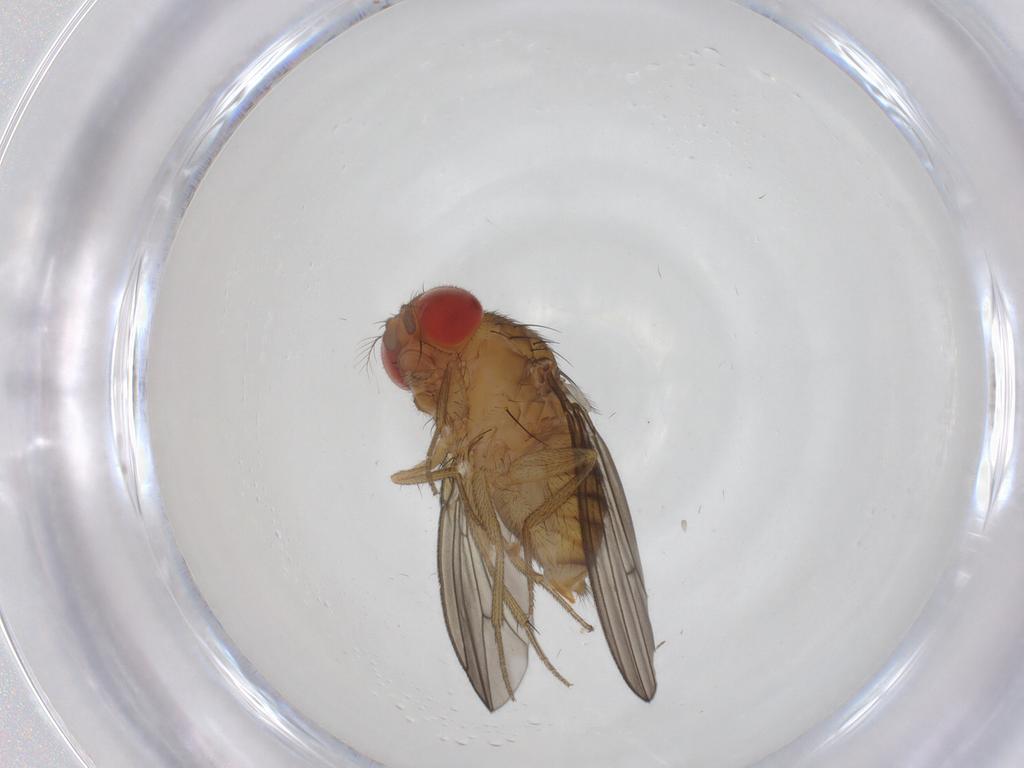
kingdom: Animalia
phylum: Arthropoda
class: Insecta
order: Diptera
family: Drosophilidae
